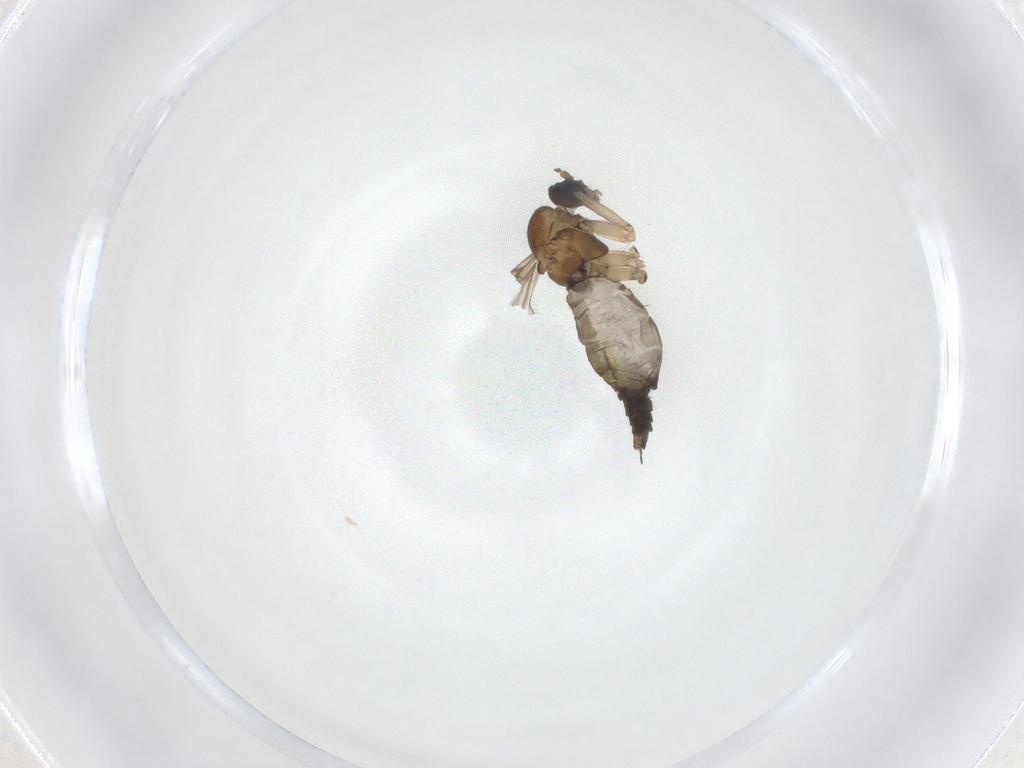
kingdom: Animalia
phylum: Arthropoda
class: Insecta
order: Diptera
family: Sciaridae
